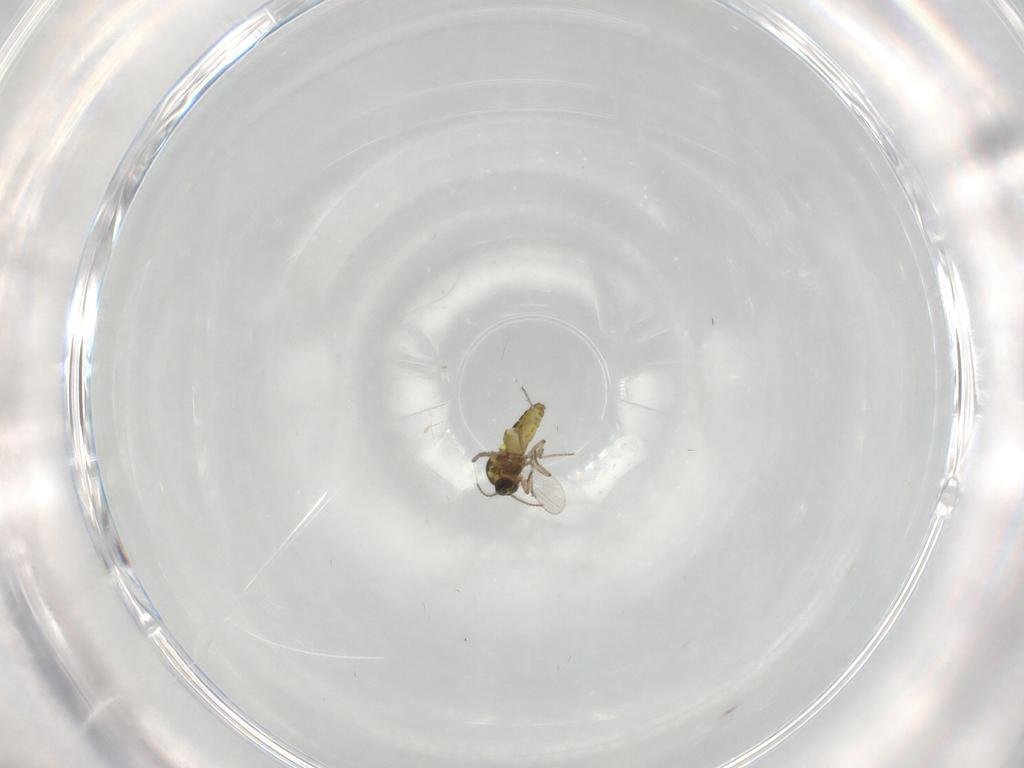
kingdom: Animalia
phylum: Arthropoda
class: Insecta
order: Diptera
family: Ceratopogonidae
